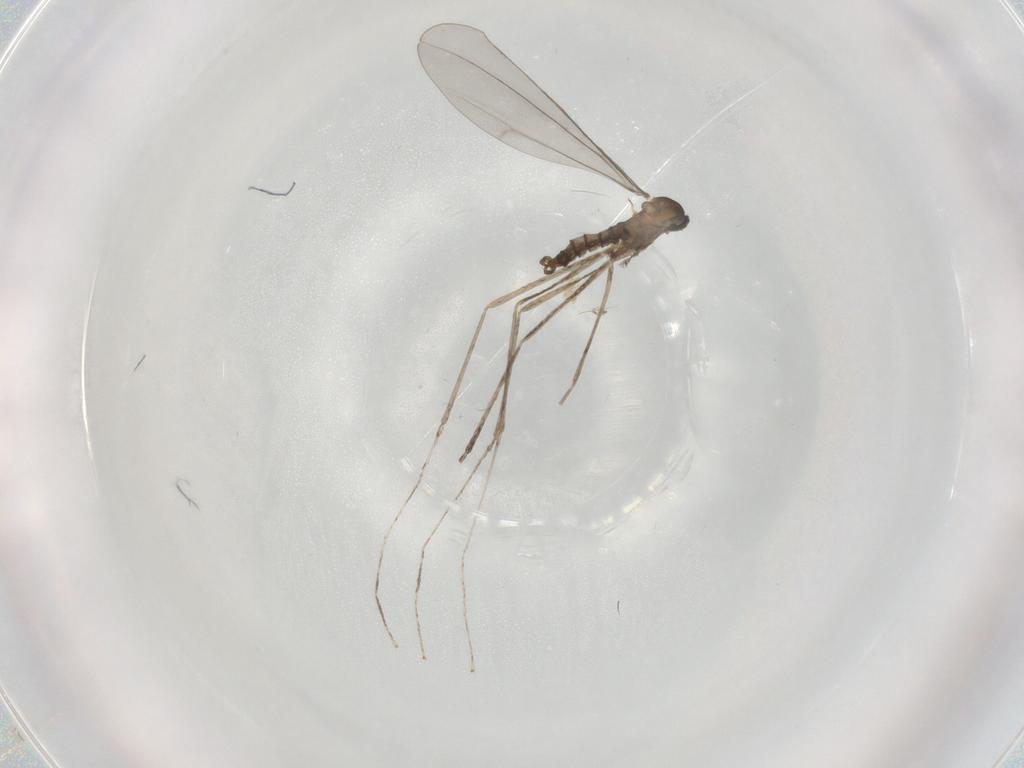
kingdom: Animalia
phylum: Arthropoda
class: Insecta
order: Diptera
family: Cecidomyiidae
